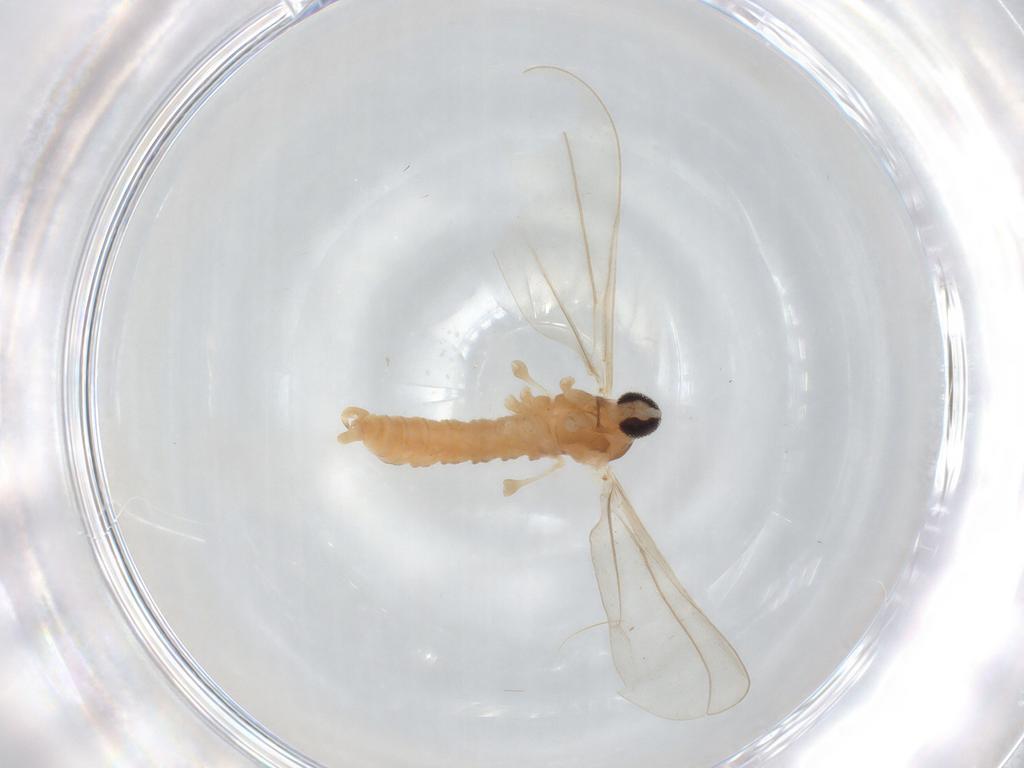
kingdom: Animalia
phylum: Arthropoda
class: Insecta
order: Diptera
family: Cecidomyiidae
